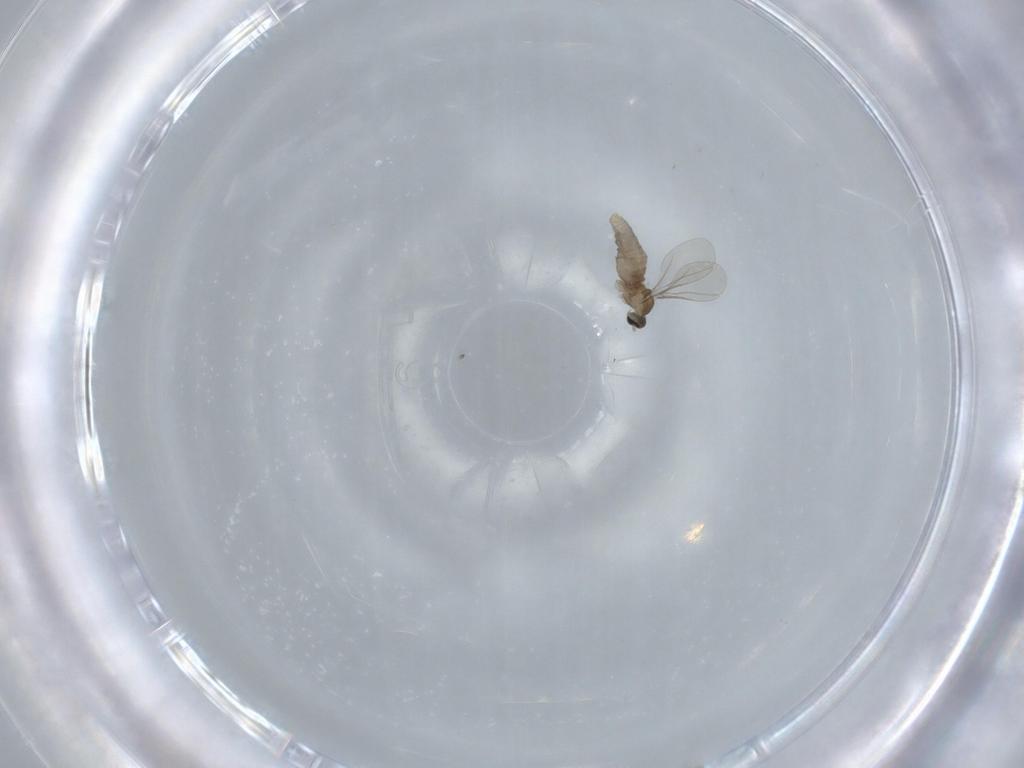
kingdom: Animalia
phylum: Arthropoda
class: Insecta
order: Diptera
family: Cecidomyiidae
